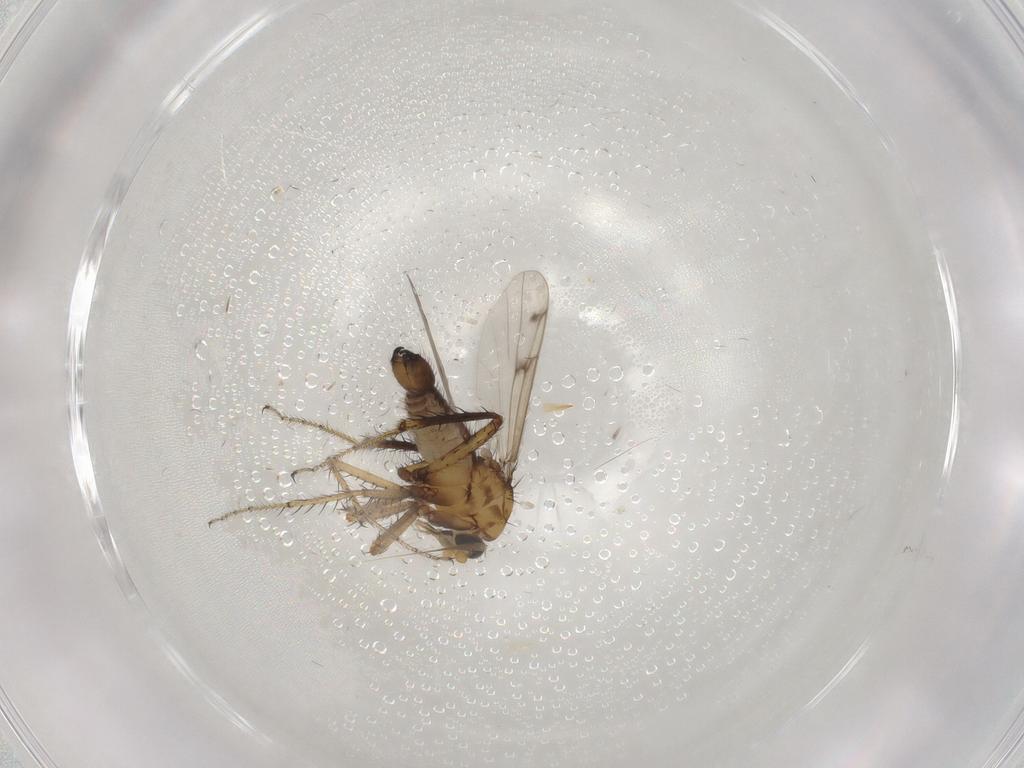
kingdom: Animalia
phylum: Arthropoda
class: Insecta
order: Diptera
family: Ceratopogonidae
